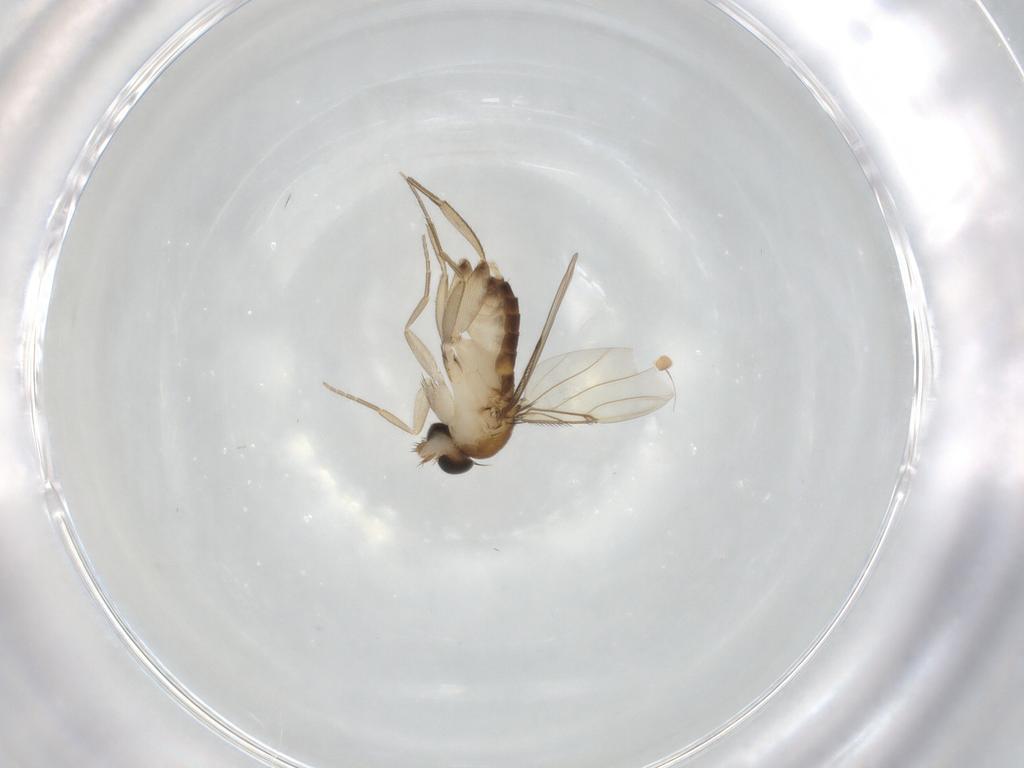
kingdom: Animalia
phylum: Arthropoda
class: Insecta
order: Diptera
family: Phoridae
